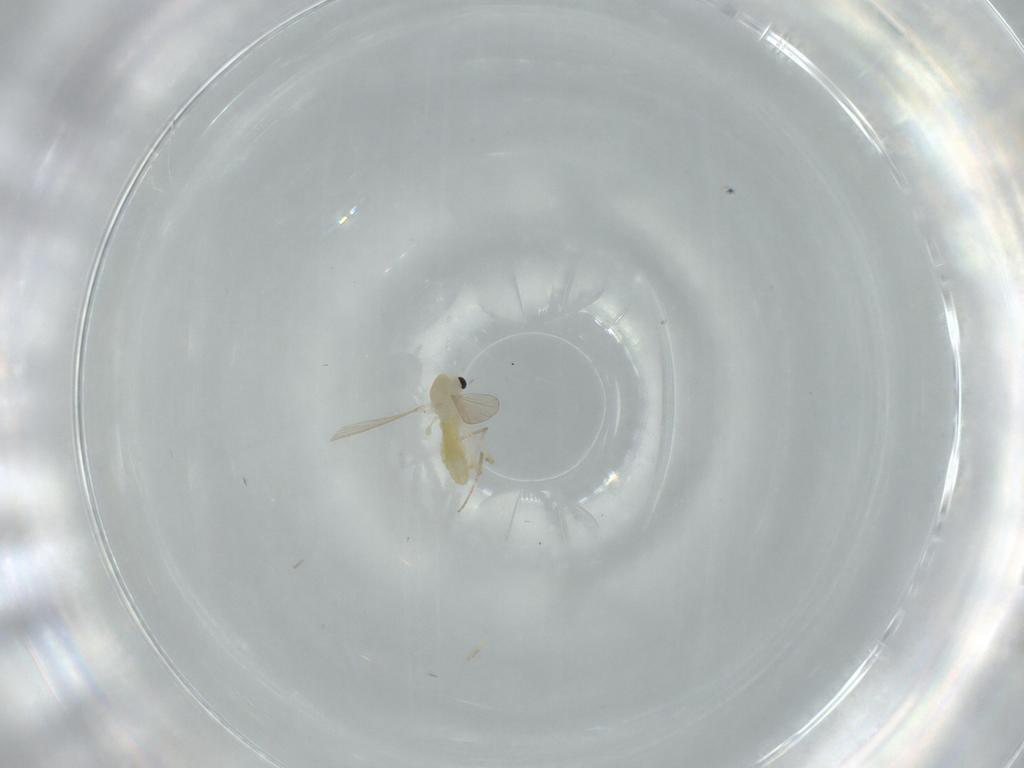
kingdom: Animalia
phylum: Arthropoda
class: Insecta
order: Diptera
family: Chironomidae
